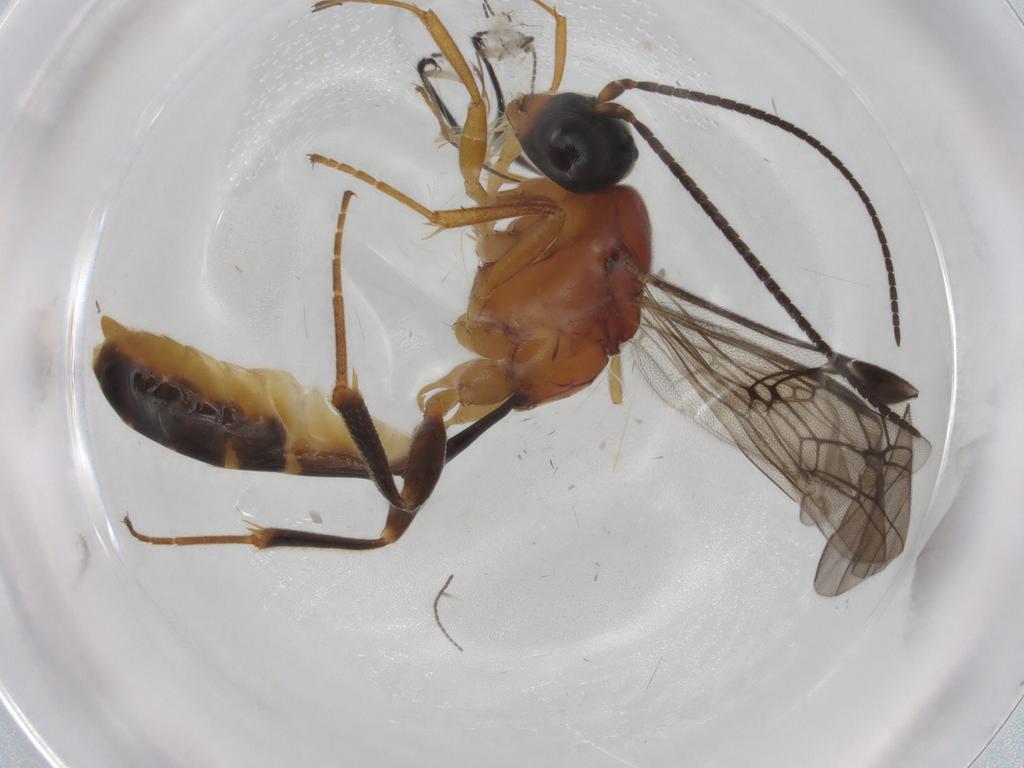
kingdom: Animalia
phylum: Arthropoda
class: Insecta
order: Hymenoptera
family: Ichneumonidae
